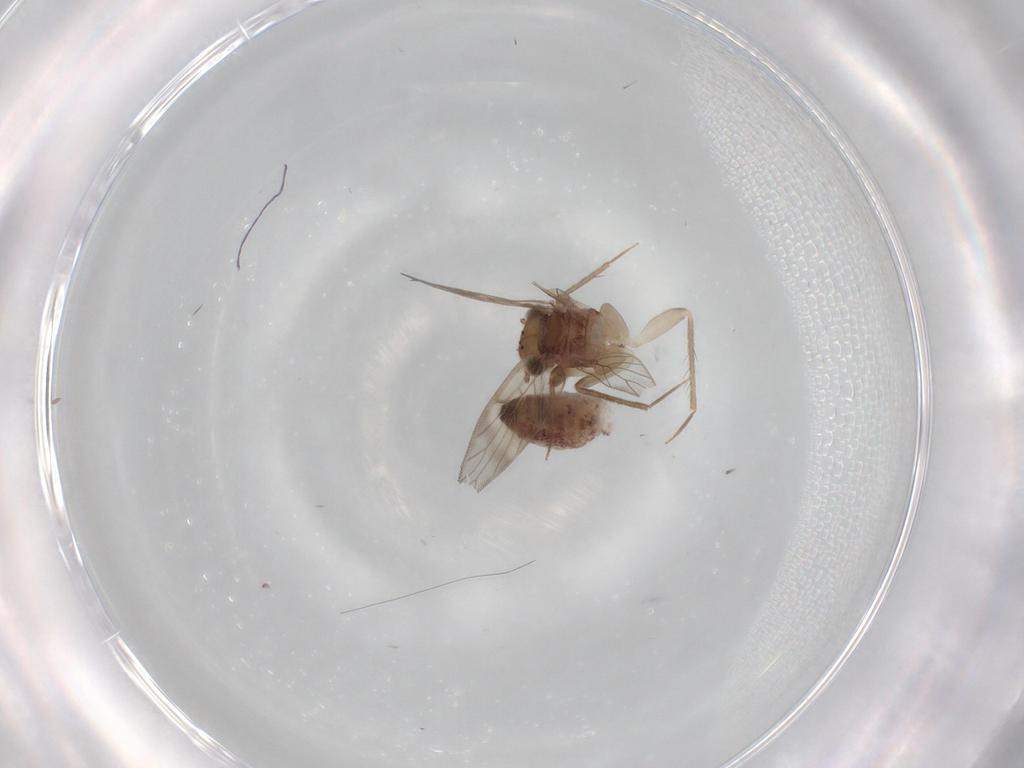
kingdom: Animalia
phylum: Arthropoda
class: Insecta
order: Psocodea
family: Lepidopsocidae
